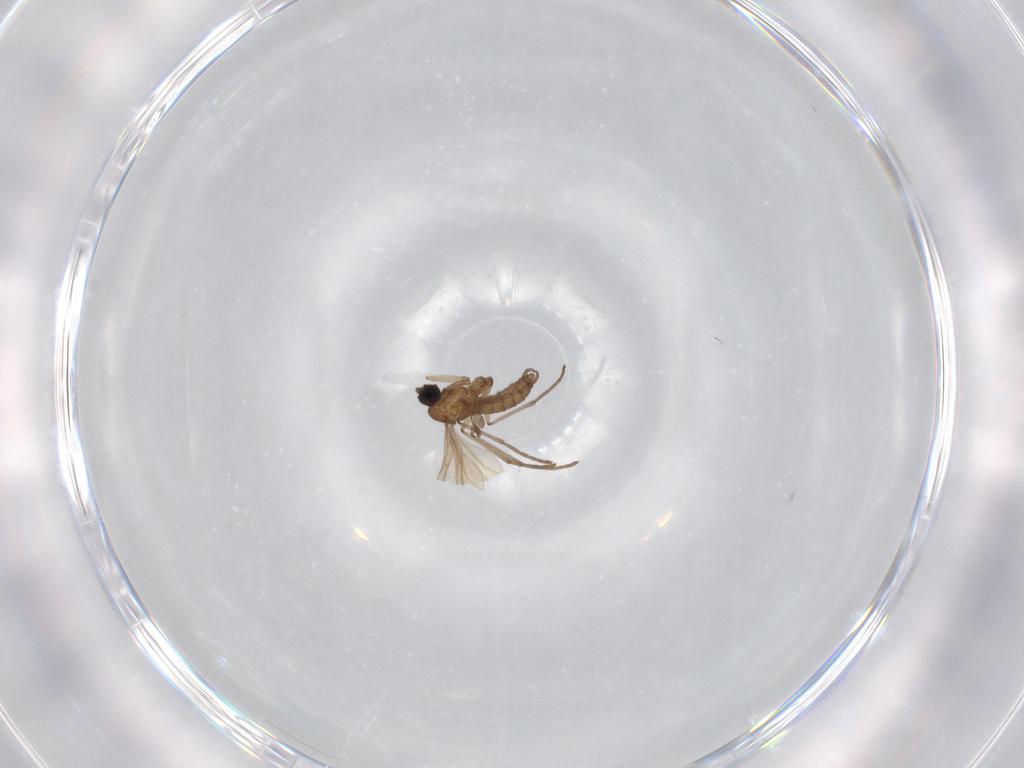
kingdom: Animalia
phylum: Arthropoda
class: Insecta
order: Diptera
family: Sciaridae
